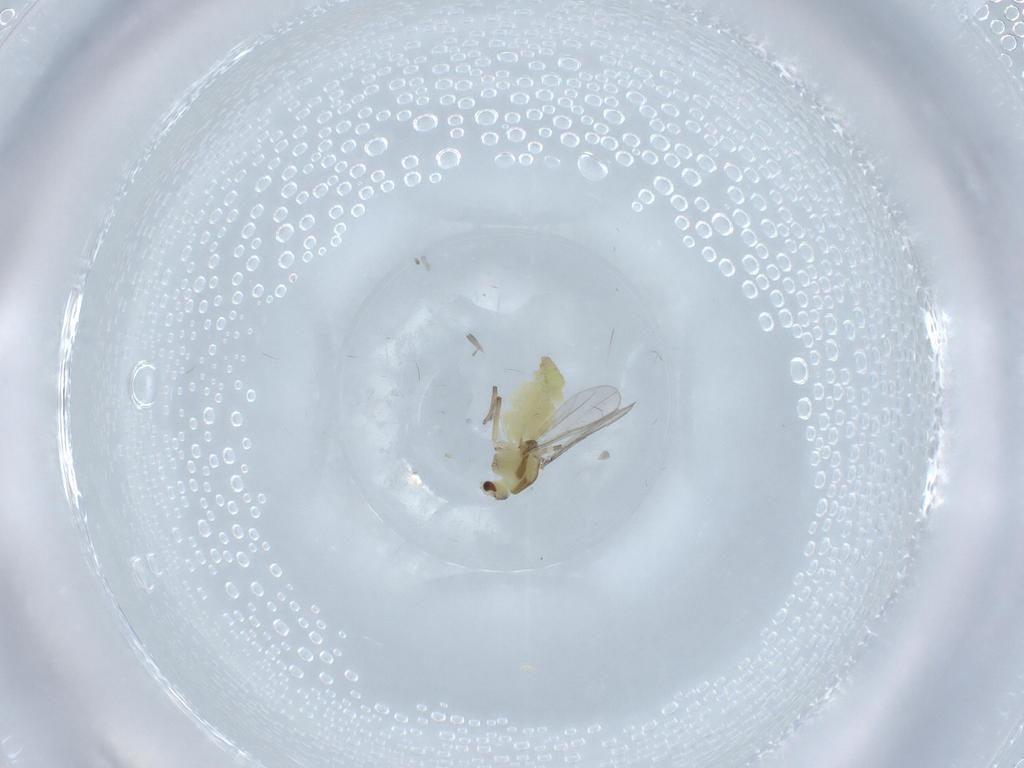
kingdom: Animalia
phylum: Arthropoda
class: Insecta
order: Diptera
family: Chironomidae
